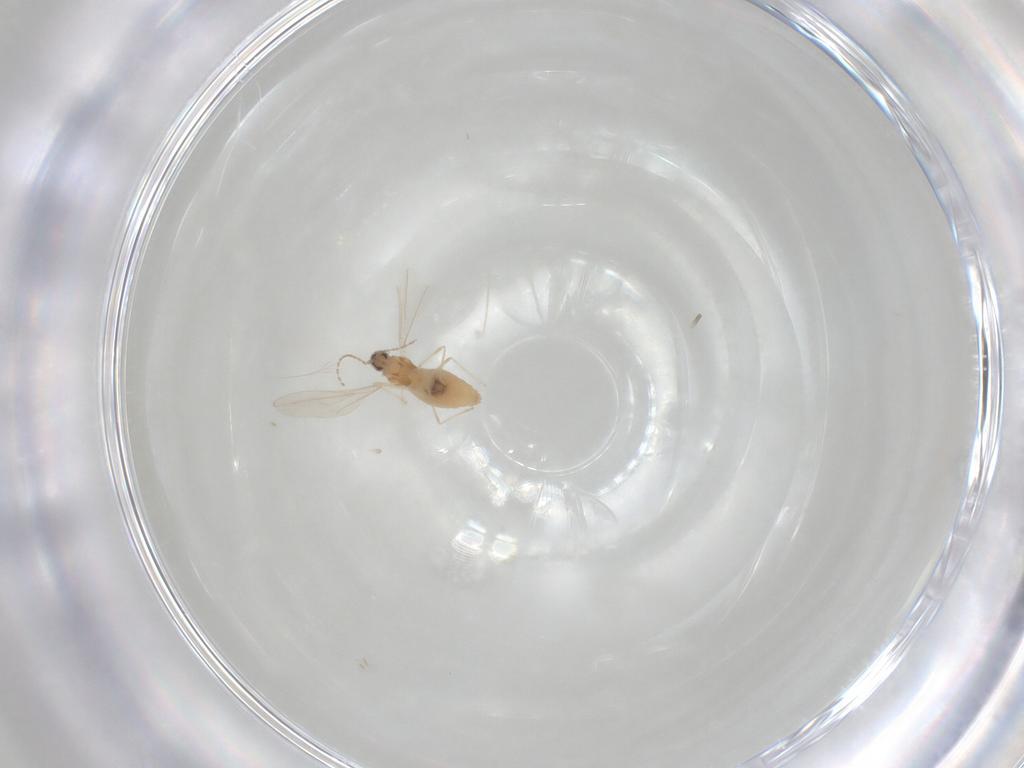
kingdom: Animalia
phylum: Arthropoda
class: Insecta
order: Diptera
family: Cecidomyiidae
